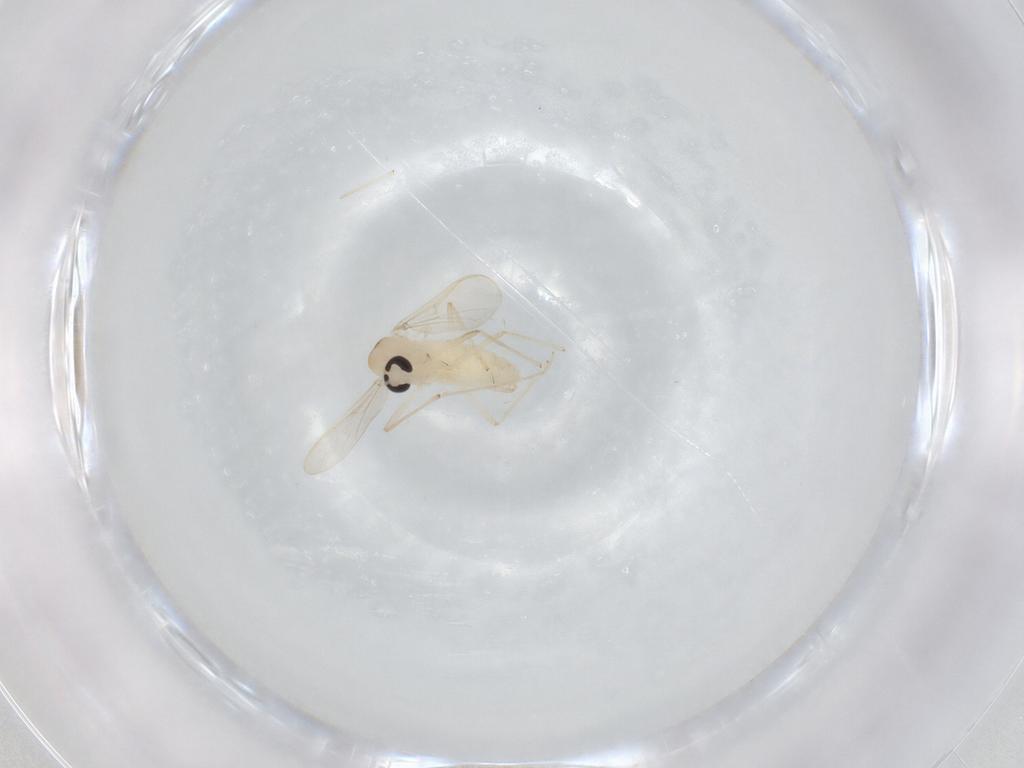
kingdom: Animalia
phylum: Arthropoda
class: Insecta
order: Diptera
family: Chironomidae
